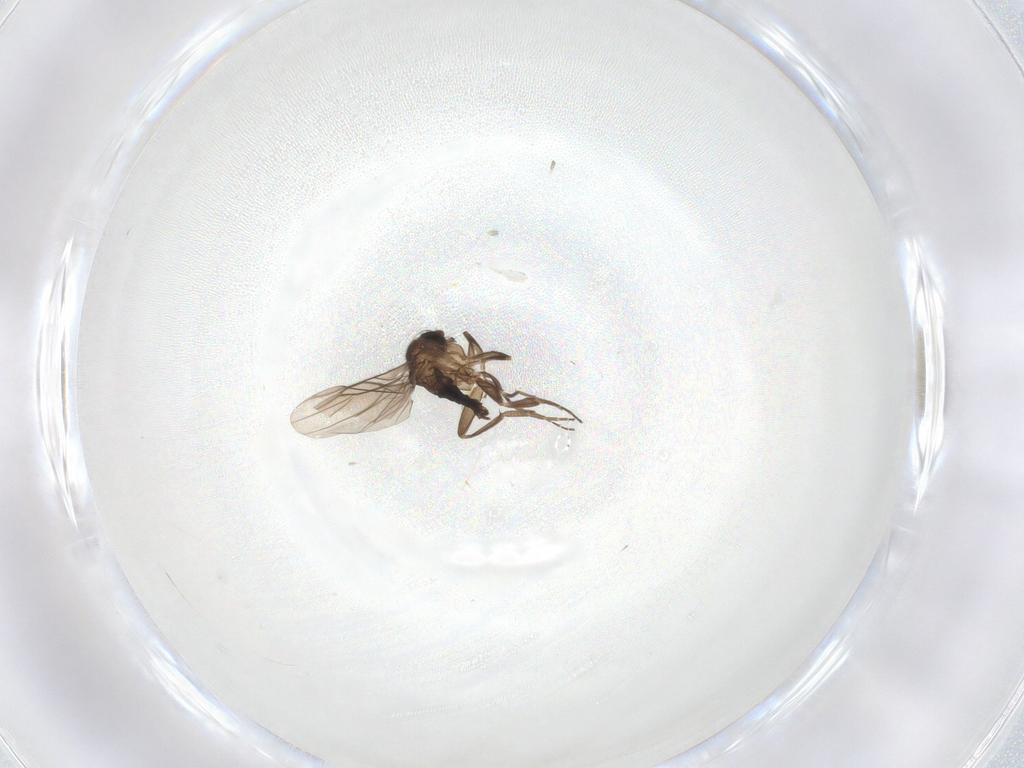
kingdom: Animalia
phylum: Arthropoda
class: Insecta
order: Diptera
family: Phoridae
